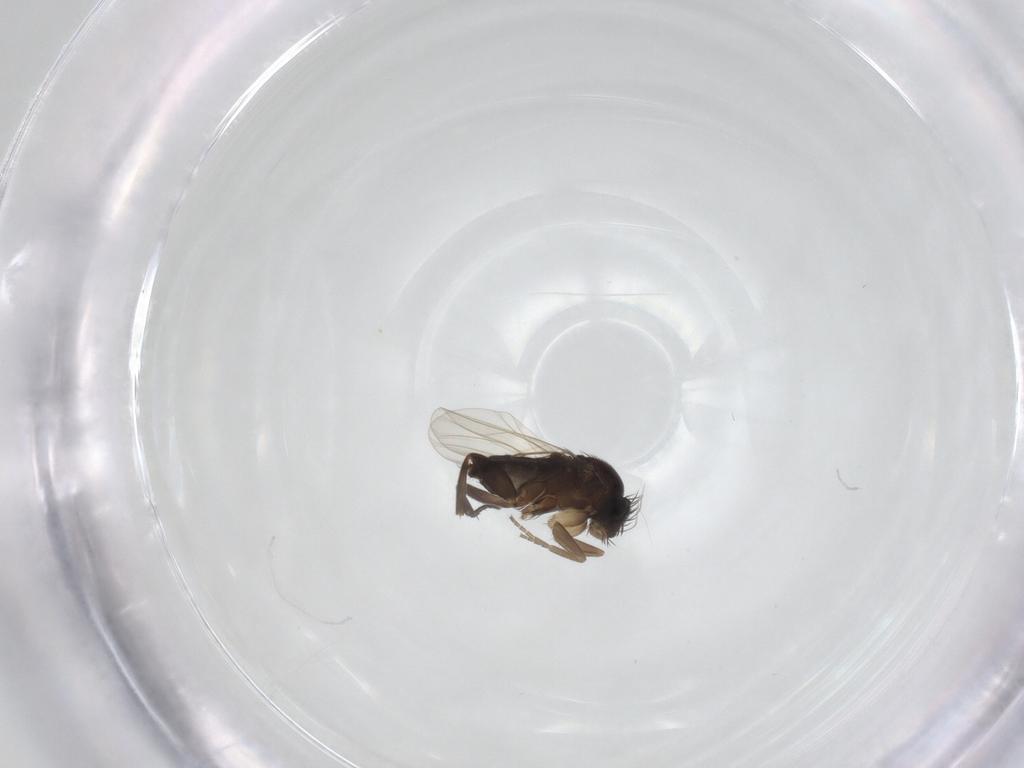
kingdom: Animalia
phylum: Arthropoda
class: Insecta
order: Diptera
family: Phoridae
